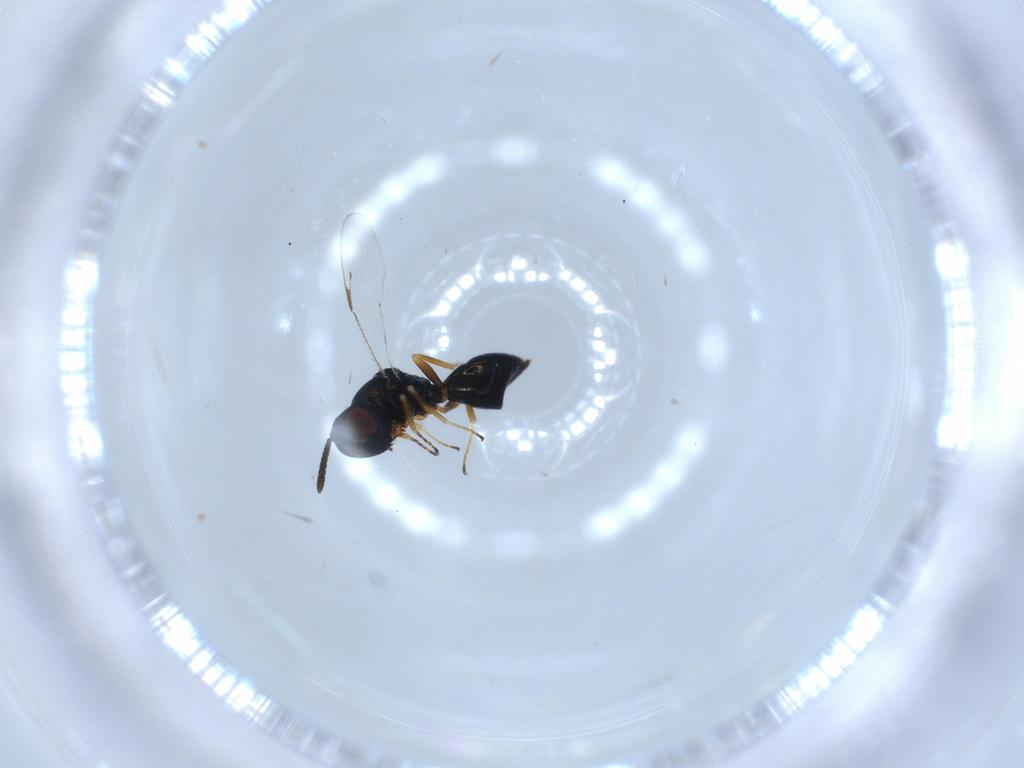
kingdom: Animalia
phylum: Arthropoda
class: Insecta
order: Hymenoptera
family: Pteromalidae
